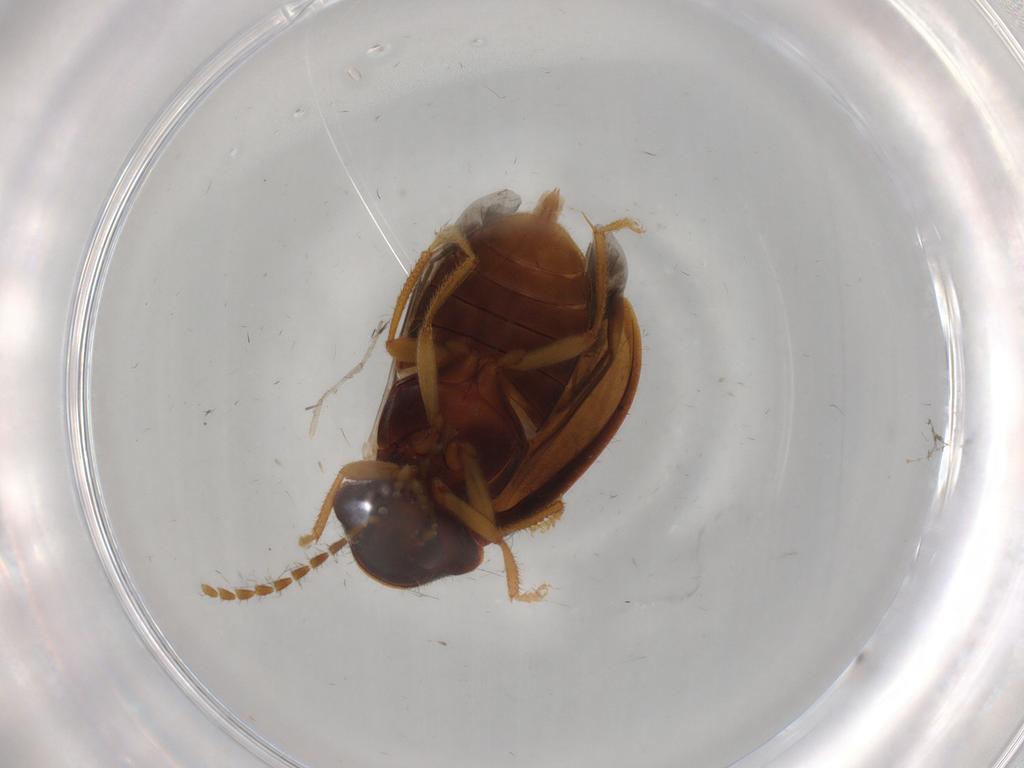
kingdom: Animalia
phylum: Arthropoda
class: Insecta
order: Coleoptera
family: Ptilodactylidae
